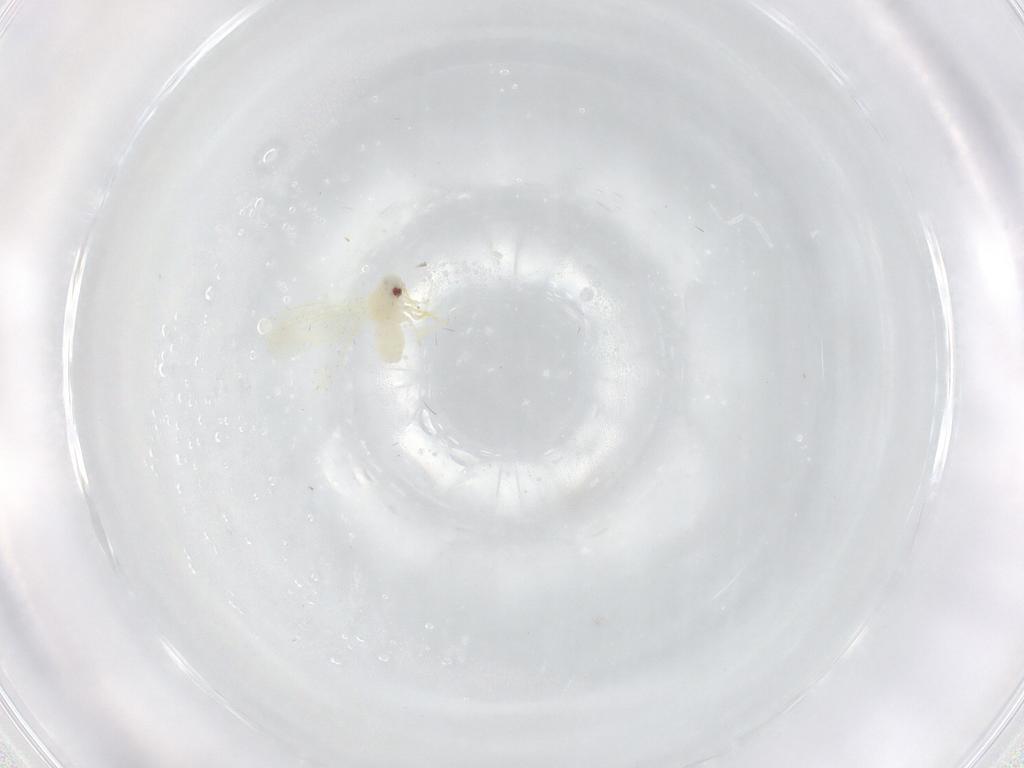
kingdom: Animalia
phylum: Arthropoda
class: Insecta
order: Hemiptera
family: Aleyrodidae
